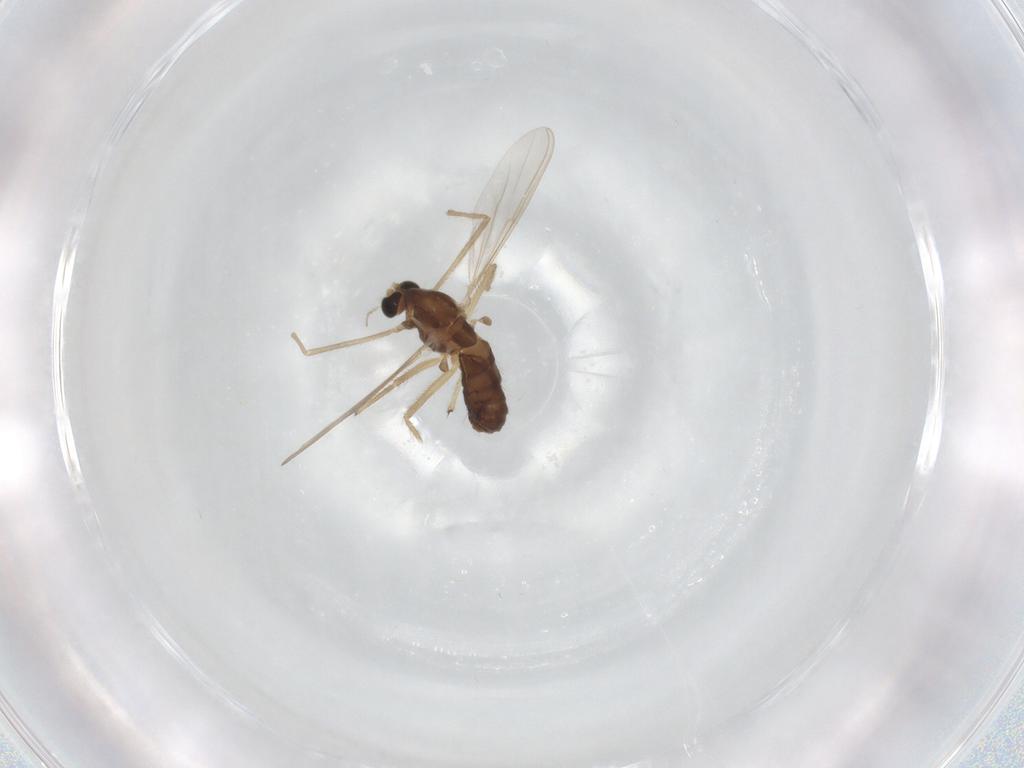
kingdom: Animalia
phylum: Arthropoda
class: Insecta
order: Diptera
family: Chironomidae
